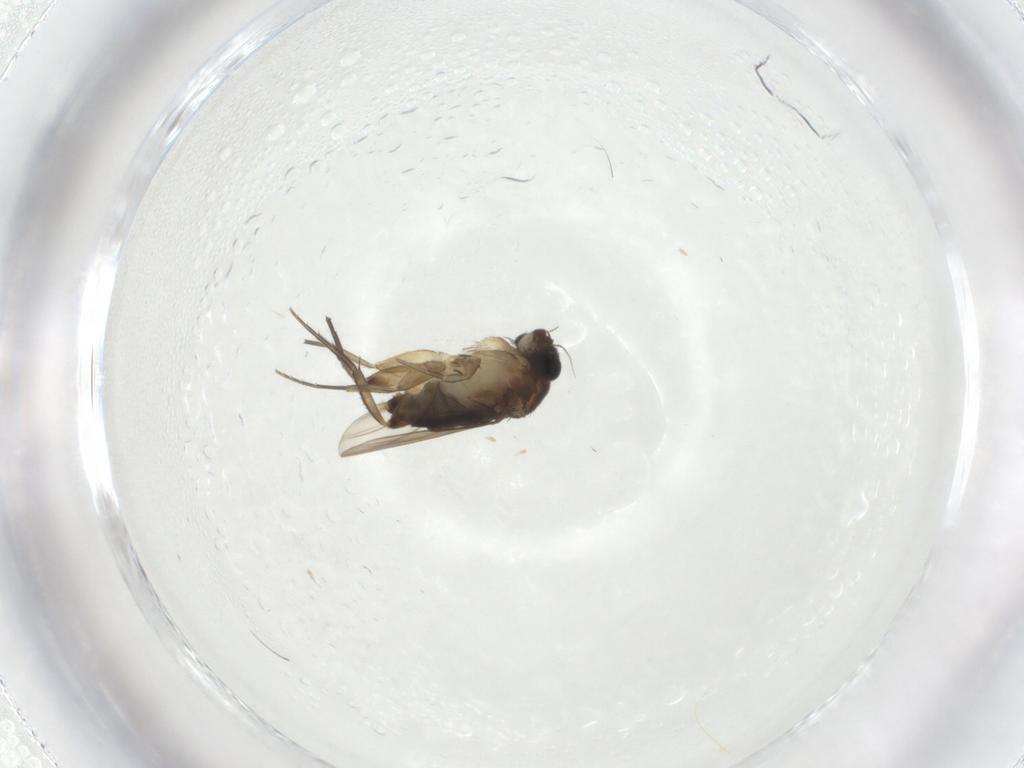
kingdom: Animalia
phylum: Arthropoda
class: Insecta
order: Diptera
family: Phoridae
